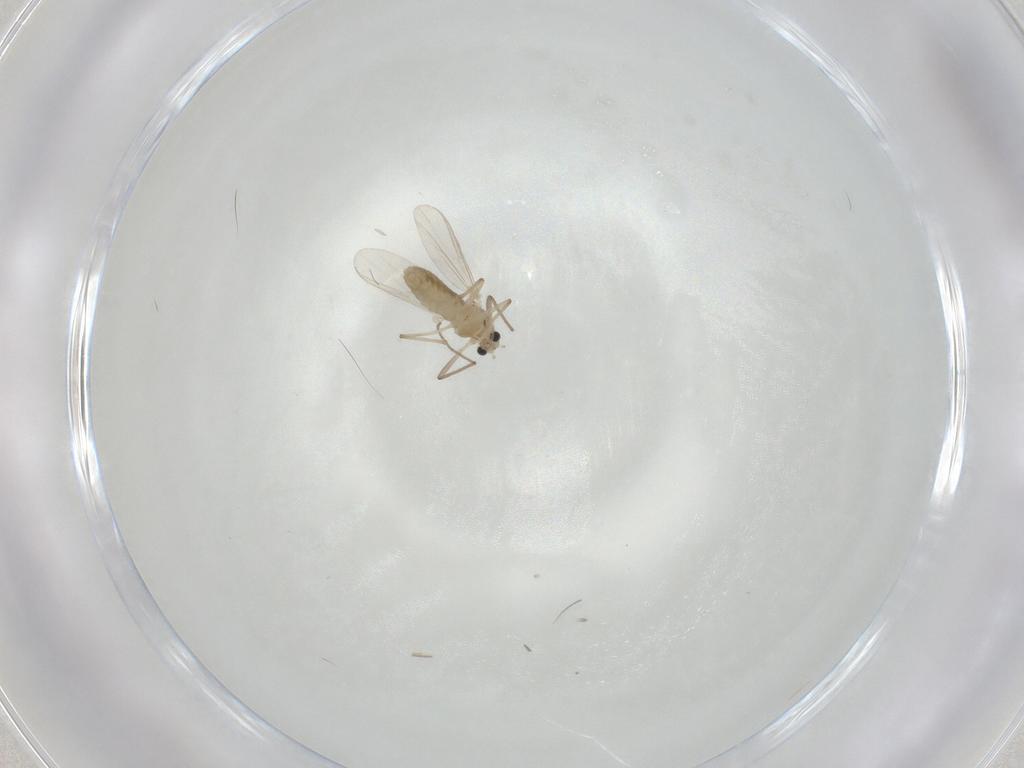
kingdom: Animalia
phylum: Arthropoda
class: Insecta
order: Diptera
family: Chironomidae
